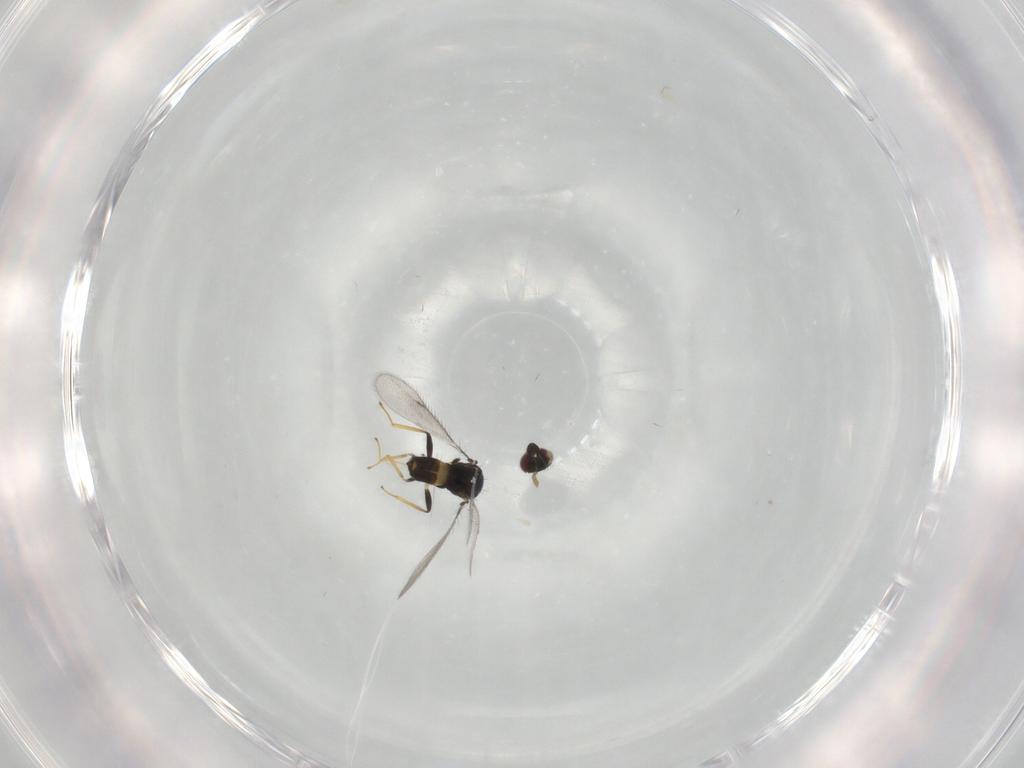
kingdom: Animalia
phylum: Arthropoda
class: Insecta
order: Hymenoptera
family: Eulophidae
